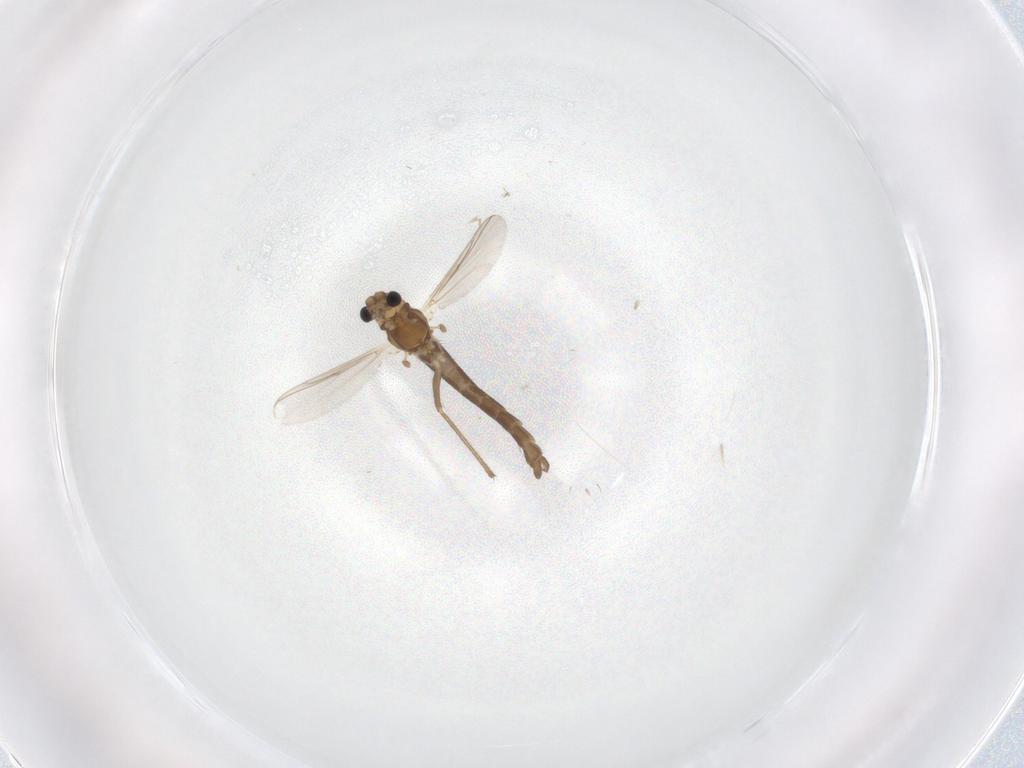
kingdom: Animalia
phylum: Arthropoda
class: Insecta
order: Diptera
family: Chironomidae
